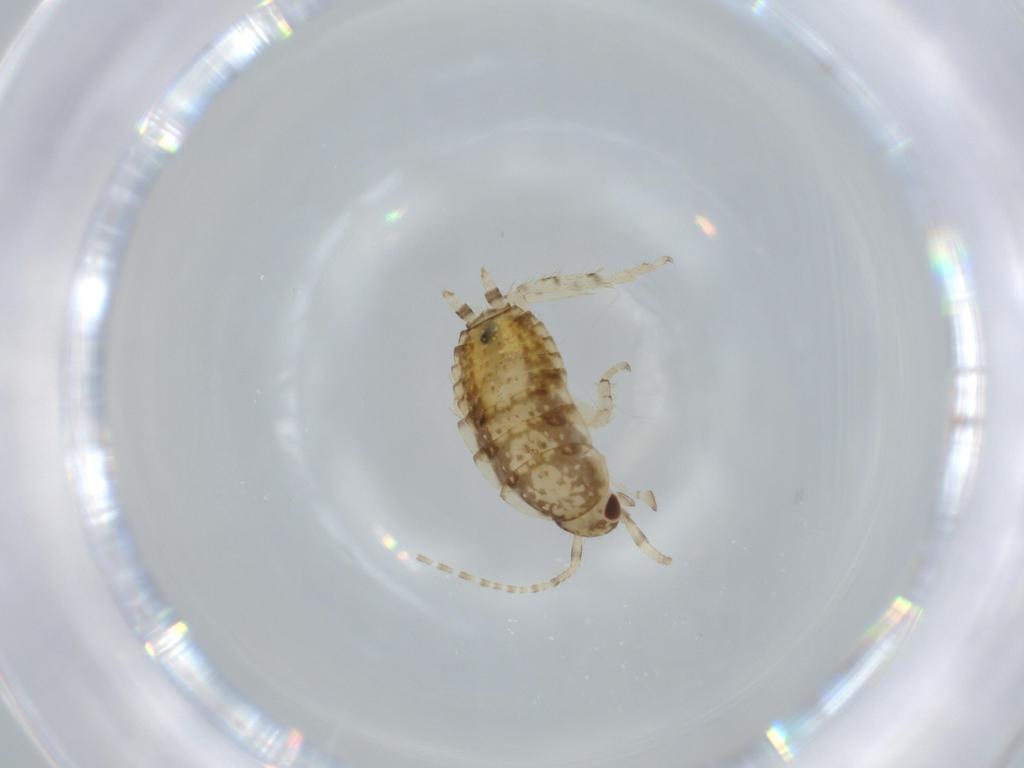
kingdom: Animalia
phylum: Arthropoda
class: Insecta
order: Blattodea
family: Ectobiidae
